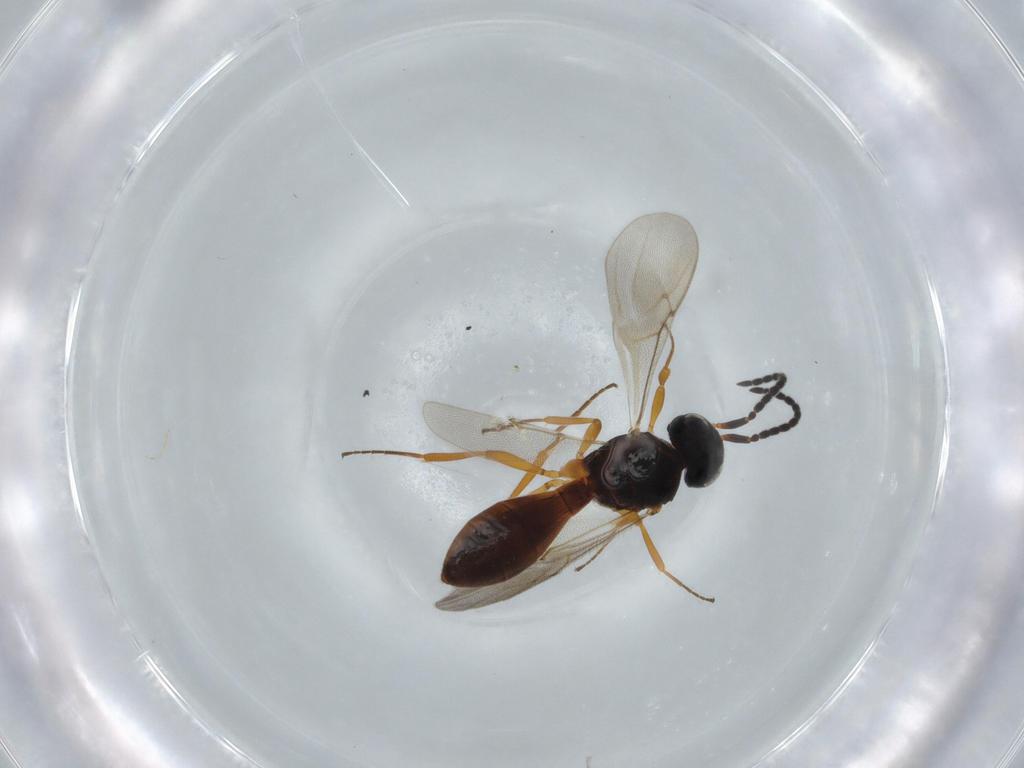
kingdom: Animalia
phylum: Arthropoda
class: Insecta
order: Hymenoptera
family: Scelionidae
